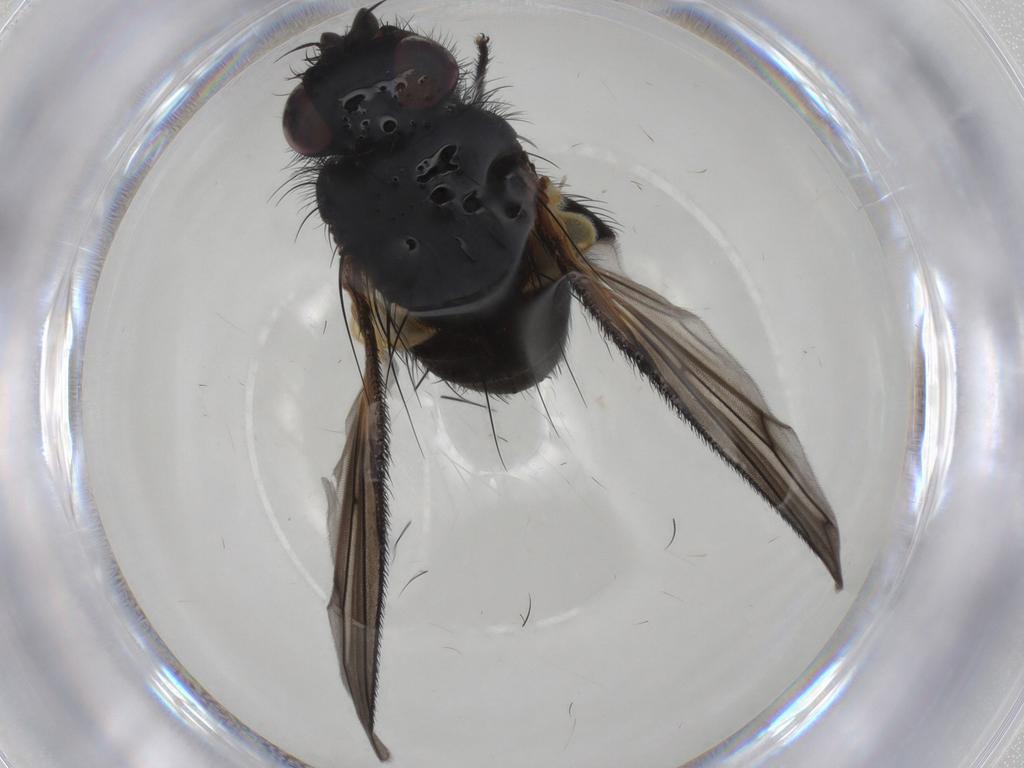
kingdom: Animalia
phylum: Arthropoda
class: Insecta
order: Diptera
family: Tachinidae
